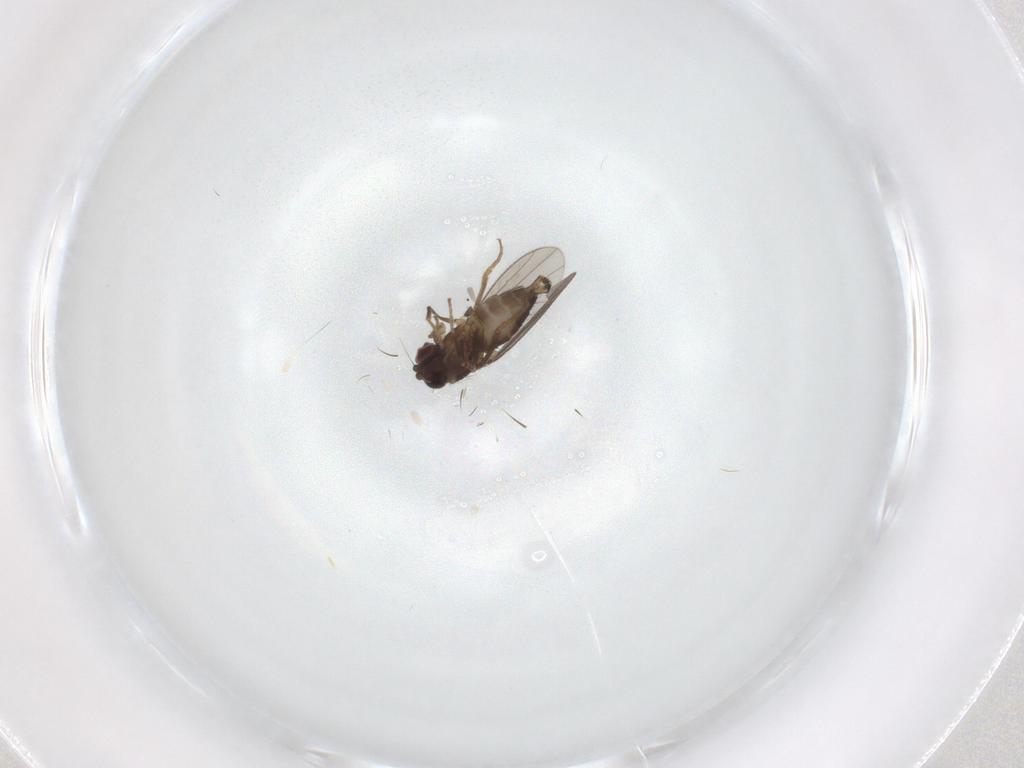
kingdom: Animalia
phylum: Arthropoda
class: Insecta
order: Diptera
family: Dolichopodidae
